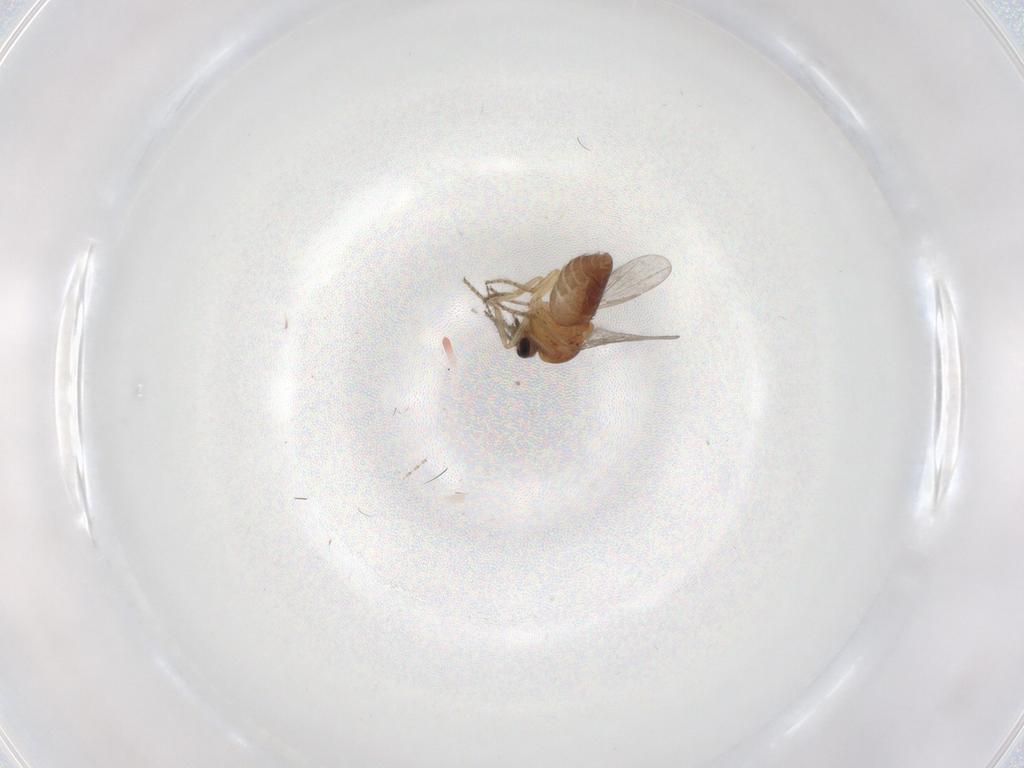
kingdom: Animalia
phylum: Arthropoda
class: Insecta
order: Diptera
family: Ceratopogonidae
